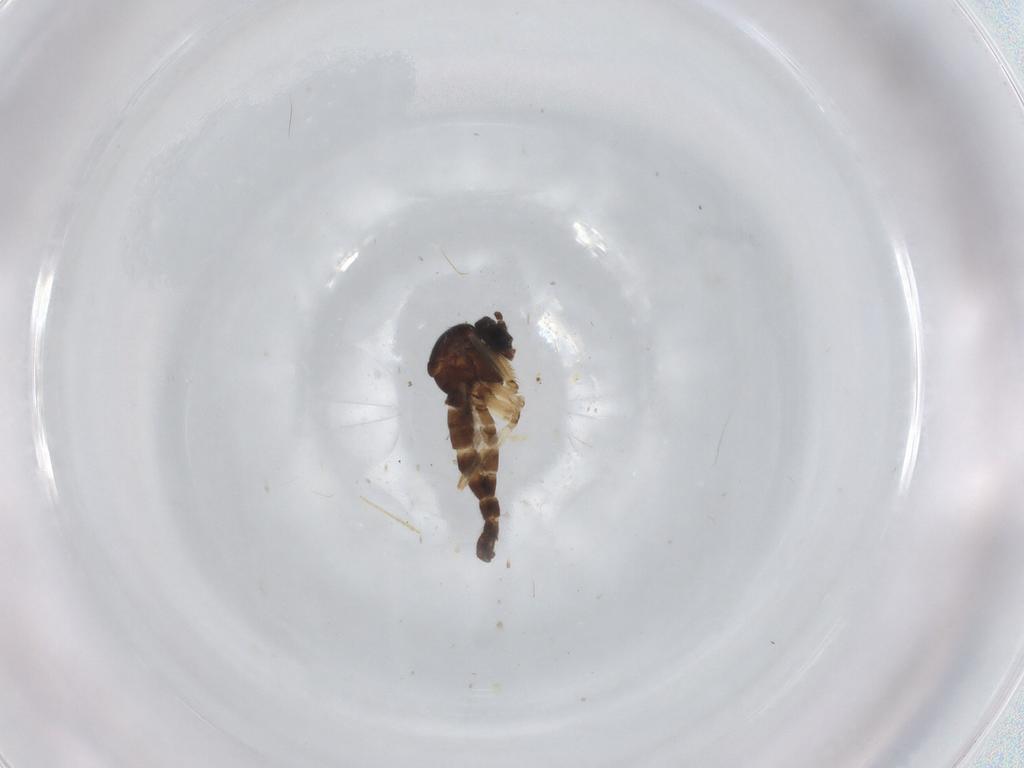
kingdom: Animalia
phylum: Arthropoda
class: Insecta
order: Diptera
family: Sciaridae
